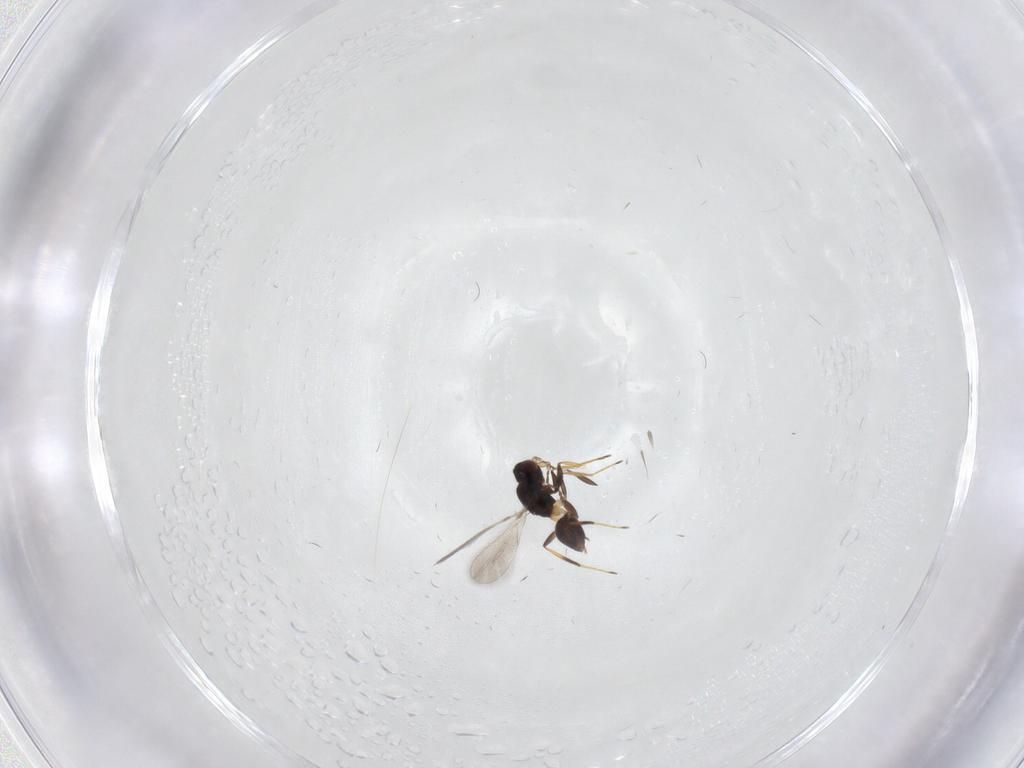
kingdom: Animalia
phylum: Arthropoda
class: Insecta
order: Hymenoptera
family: Mymaridae
